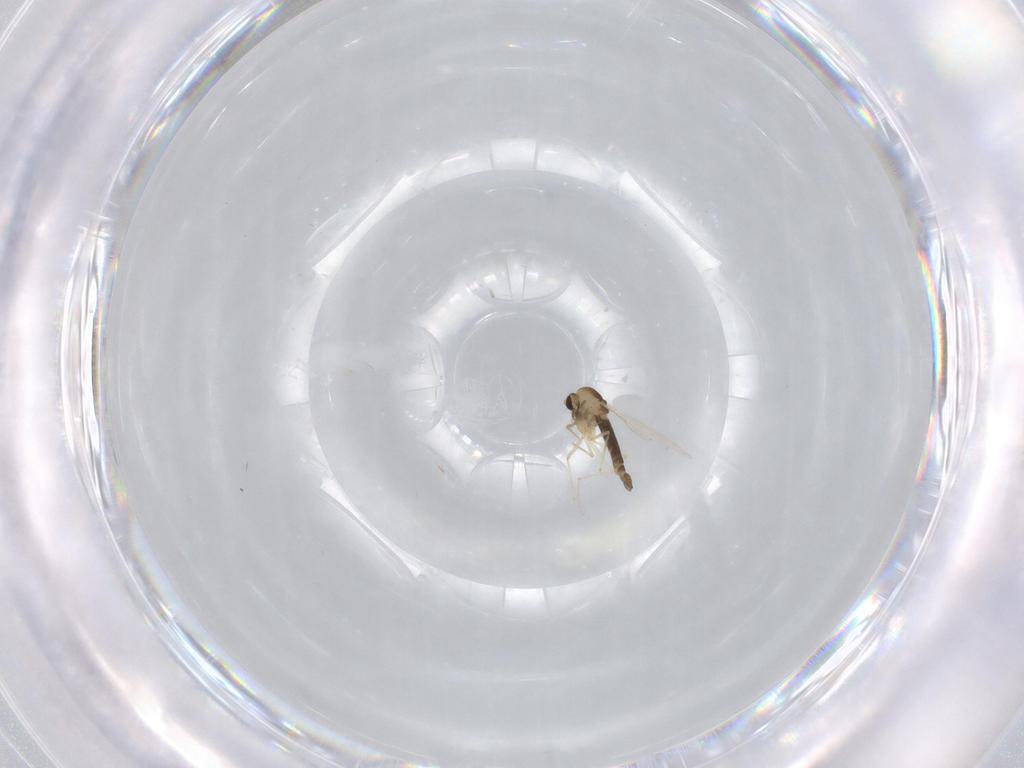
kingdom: Animalia
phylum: Arthropoda
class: Insecta
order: Diptera
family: Chironomidae
